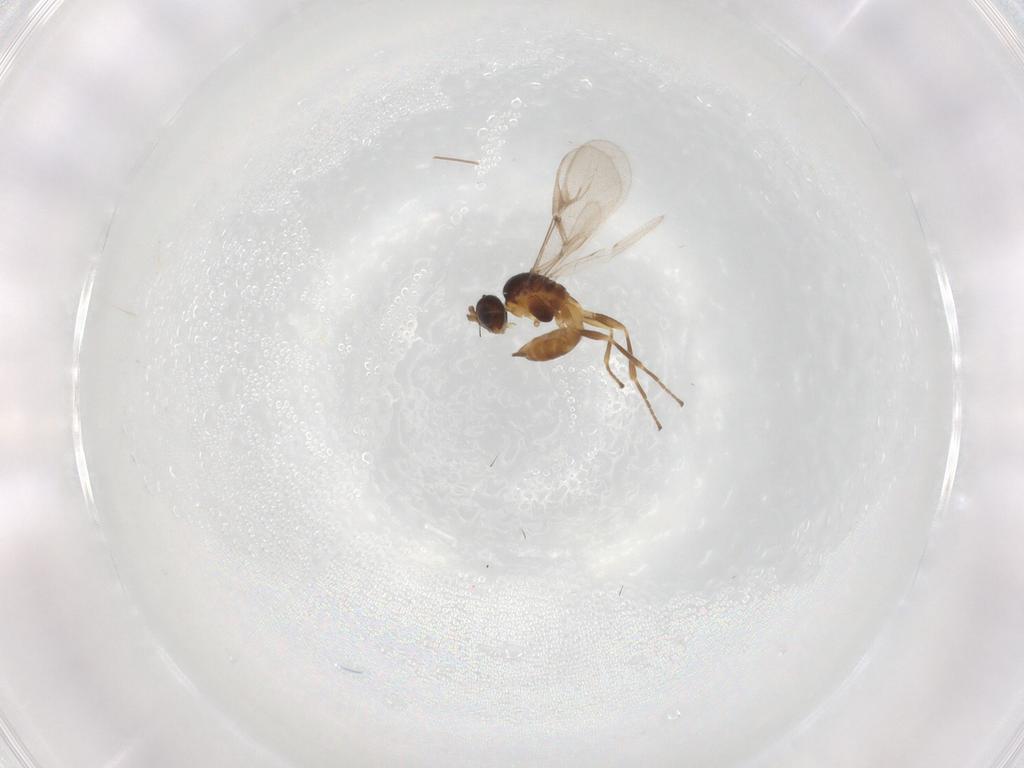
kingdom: Animalia
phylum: Arthropoda
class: Insecta
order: Hymenoptera
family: Braconidae
